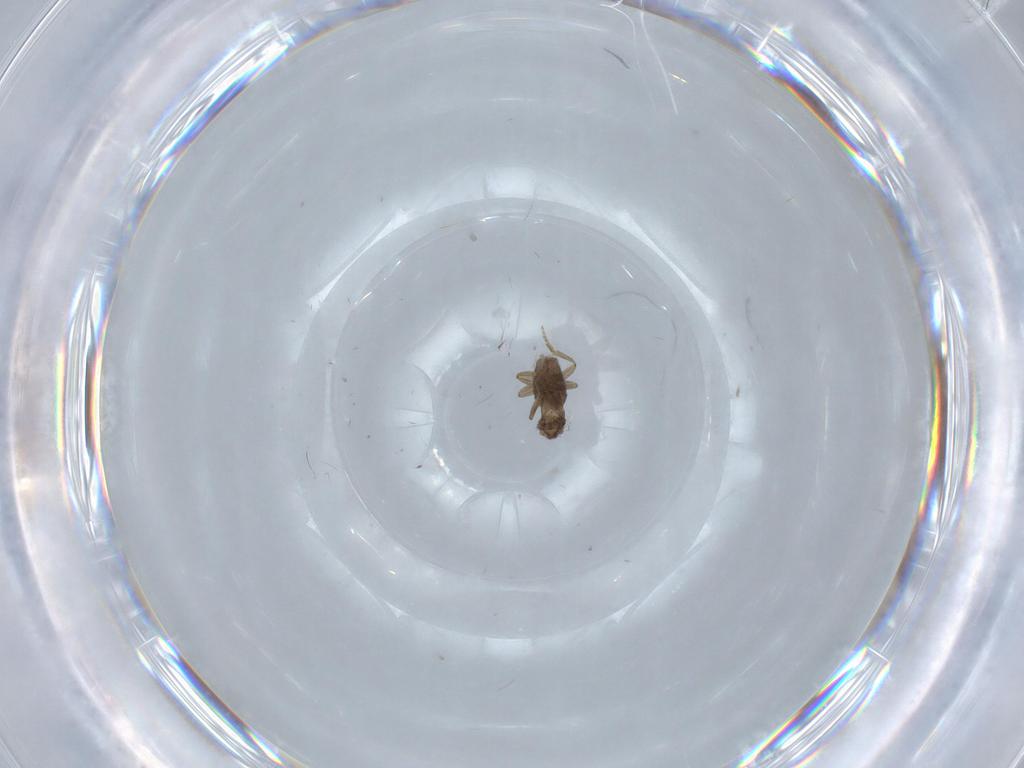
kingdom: Animalia
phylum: Arthropoda
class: Insecta
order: Diptera
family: Phoridae
